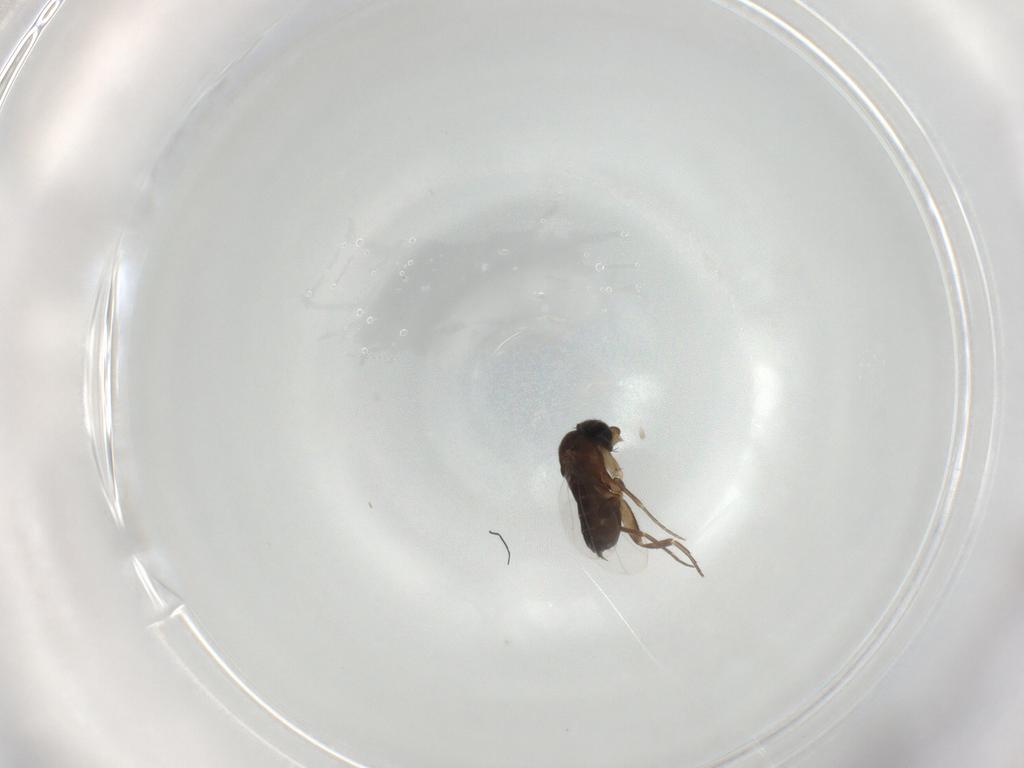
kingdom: Animalia
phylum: Arthropoda
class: Insecta
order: Diptera
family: Phoridae
